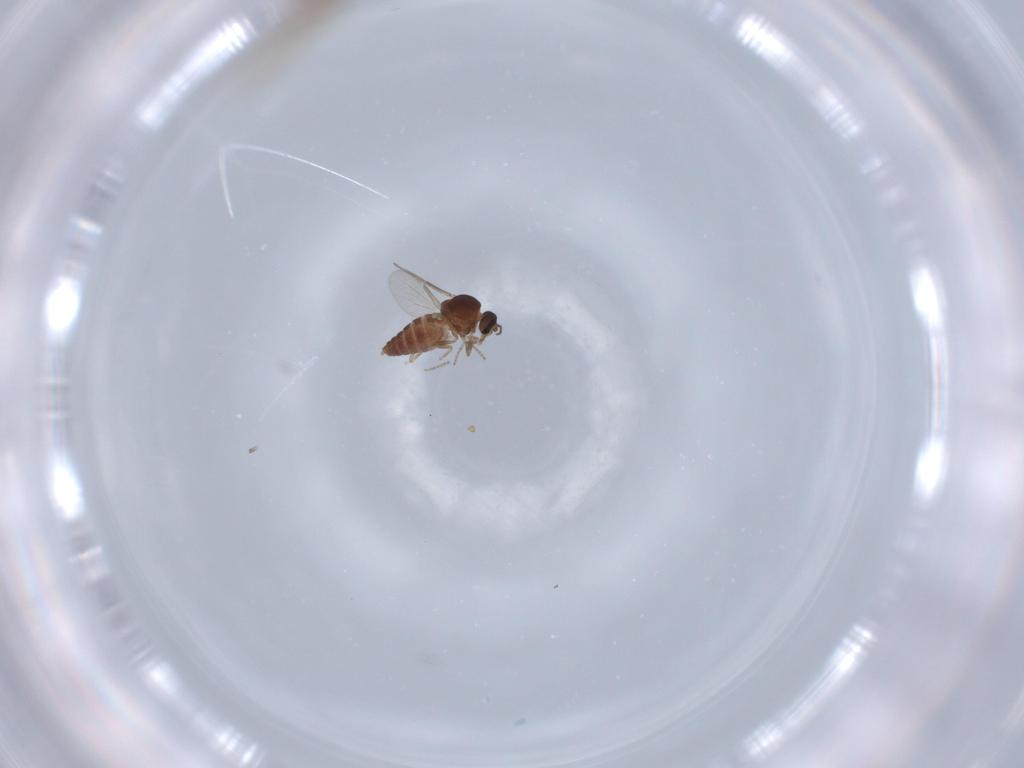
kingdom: Animalia
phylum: Arthropoda
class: Insecta
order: Diptera
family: Ceratopogonidae
